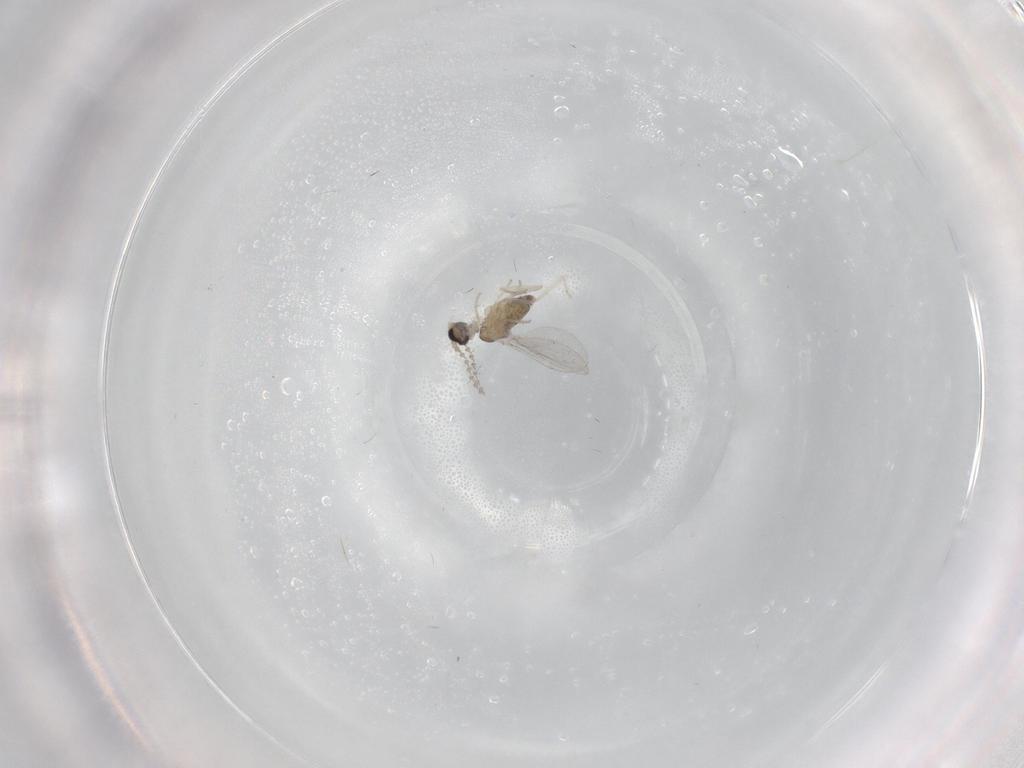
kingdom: Animalia
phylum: Arthropoda
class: Insecta
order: Diptera
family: Cecidomyiidae
